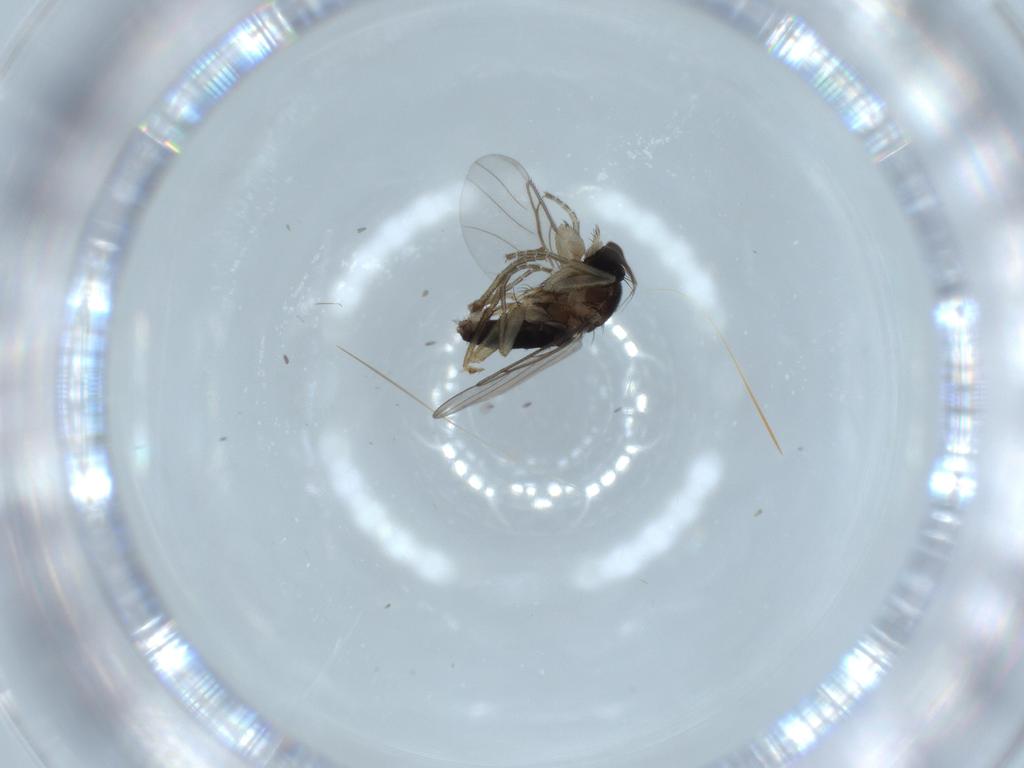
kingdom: Animalia
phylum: Arthropoda
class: Insecta
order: Diptera
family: Phoridae
